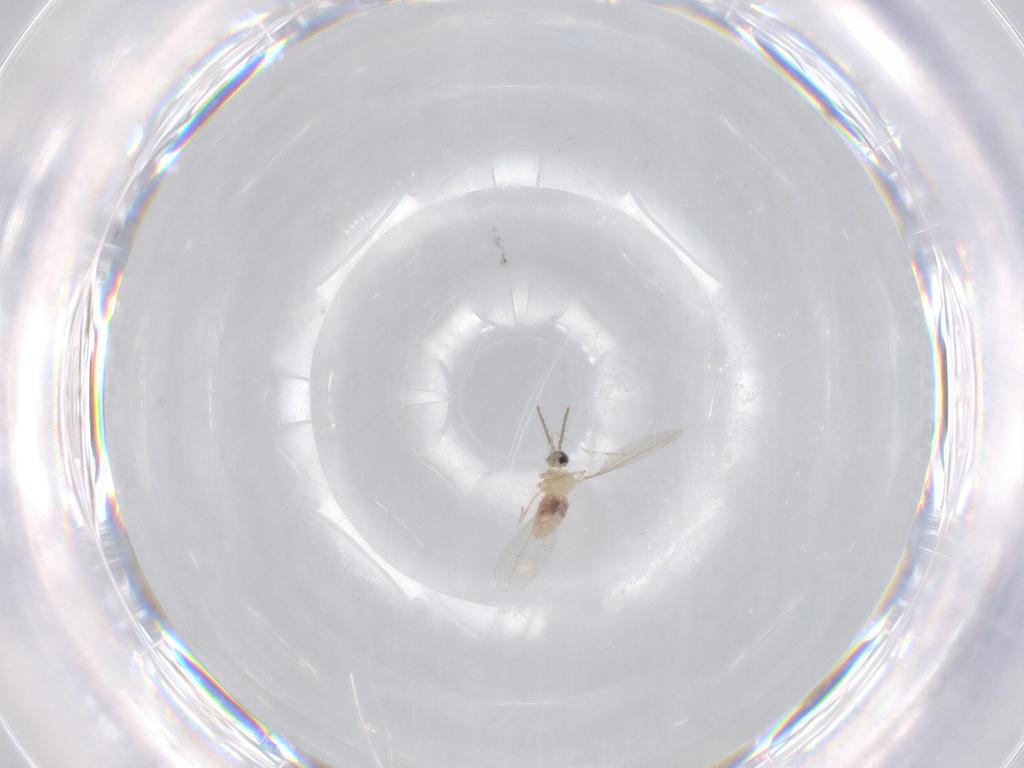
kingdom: Animalia
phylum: Arthropoda
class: Insecta
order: Diptera
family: Cecidomyiidae
